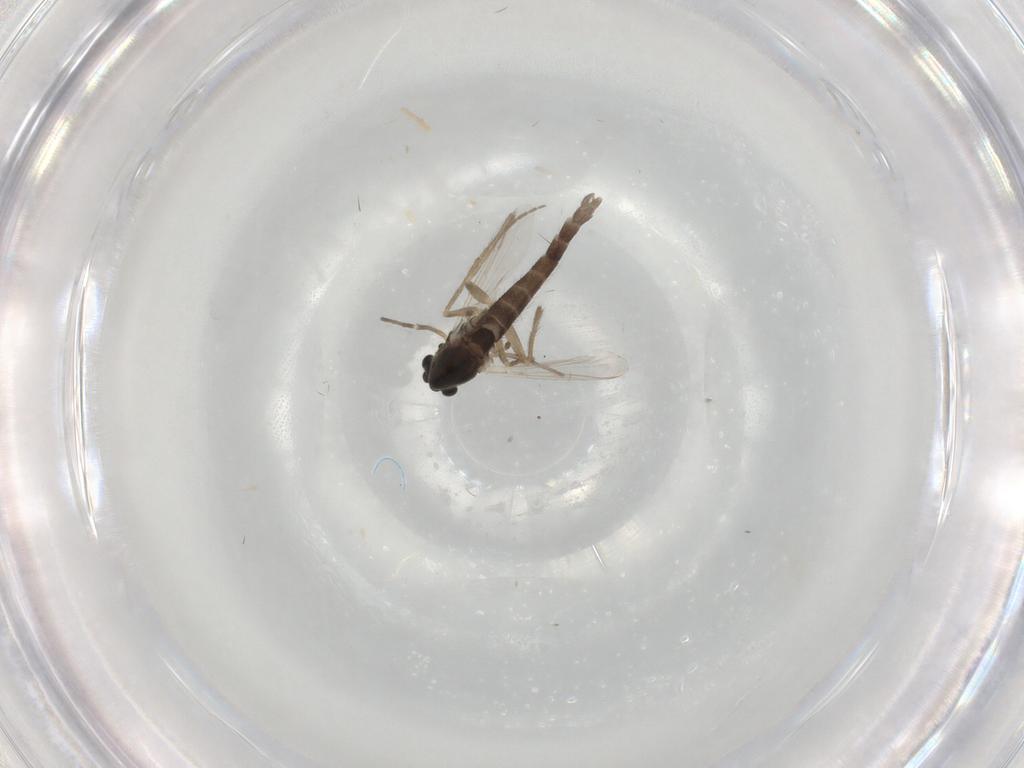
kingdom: Animalia
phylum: Arthropoda
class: Insecta
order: Diptera
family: Chironomidae
